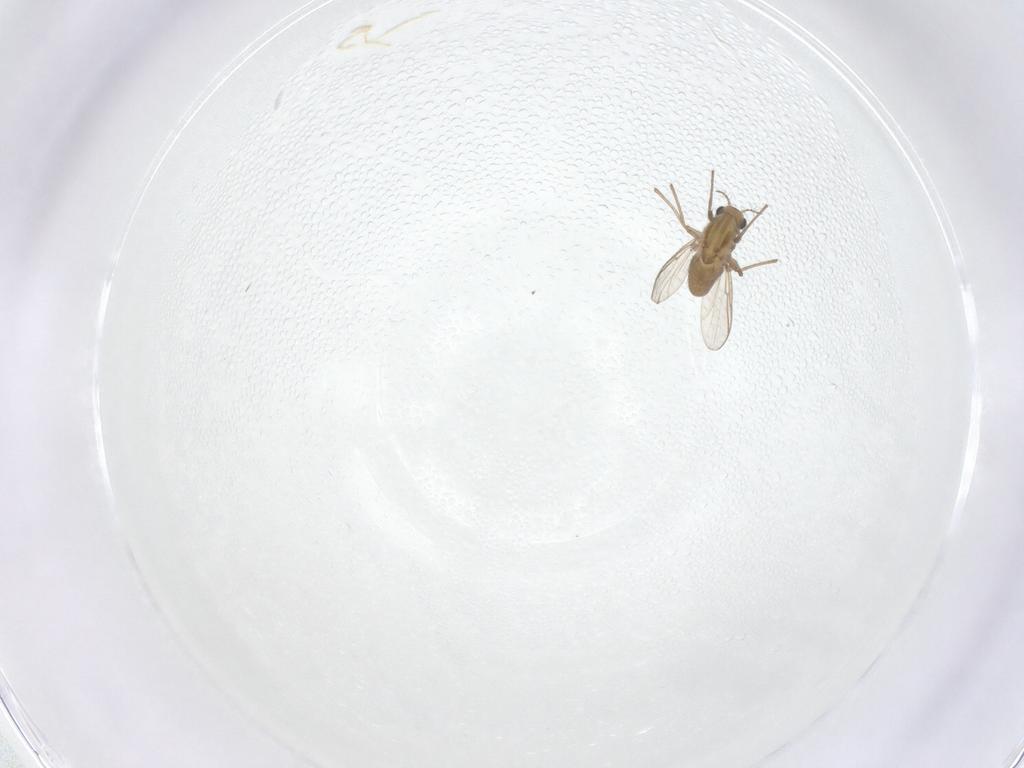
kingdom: Animalia
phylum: Arthropoda
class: Insecta
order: Diptera
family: Chironomidae
